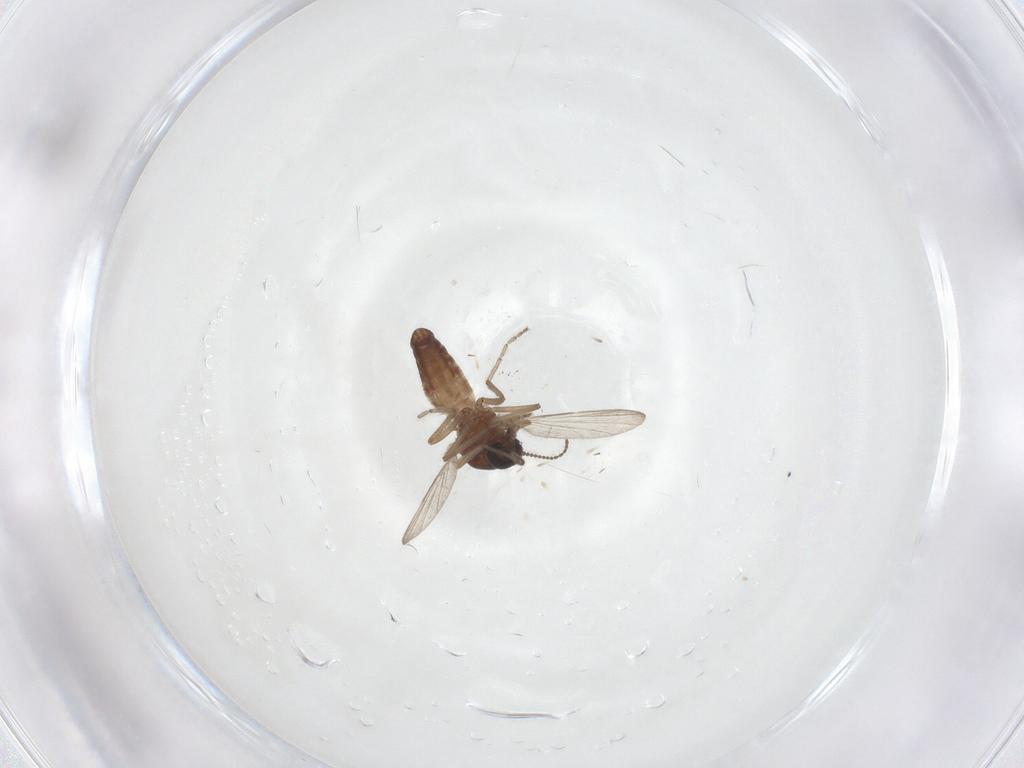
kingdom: Animalia
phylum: Arthropoda
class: Insecta
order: Diptera
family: Ceratopogonidae
